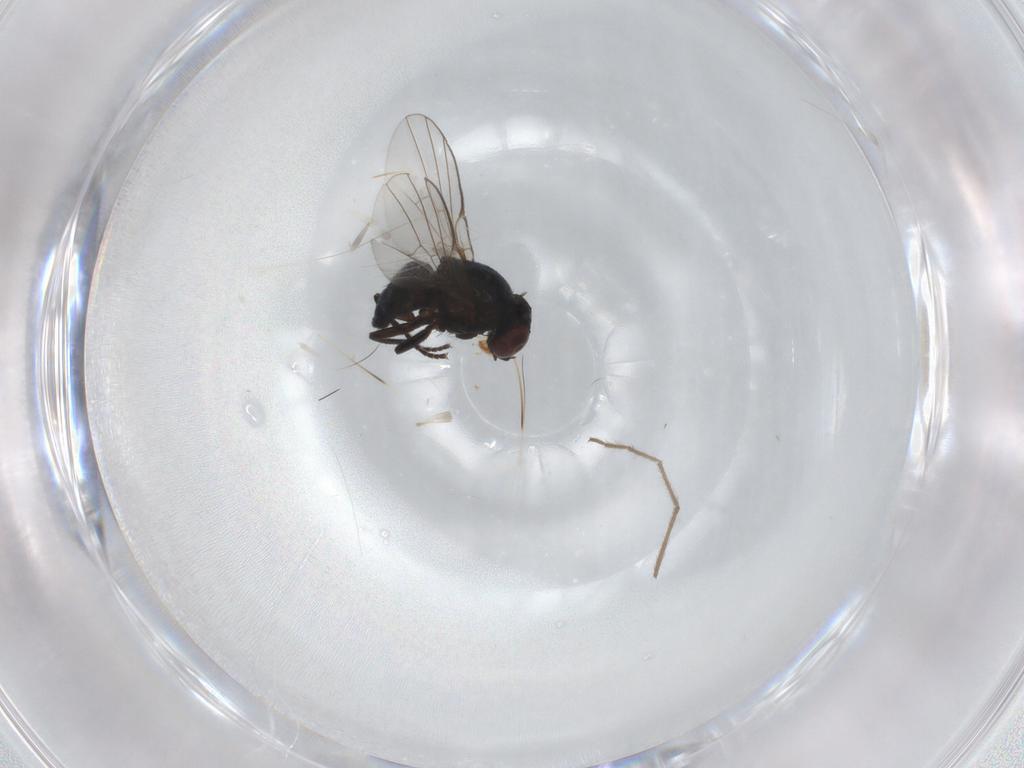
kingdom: Animalia
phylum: Arthropoda
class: Insecta
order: Diptera
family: Agromyzidae
